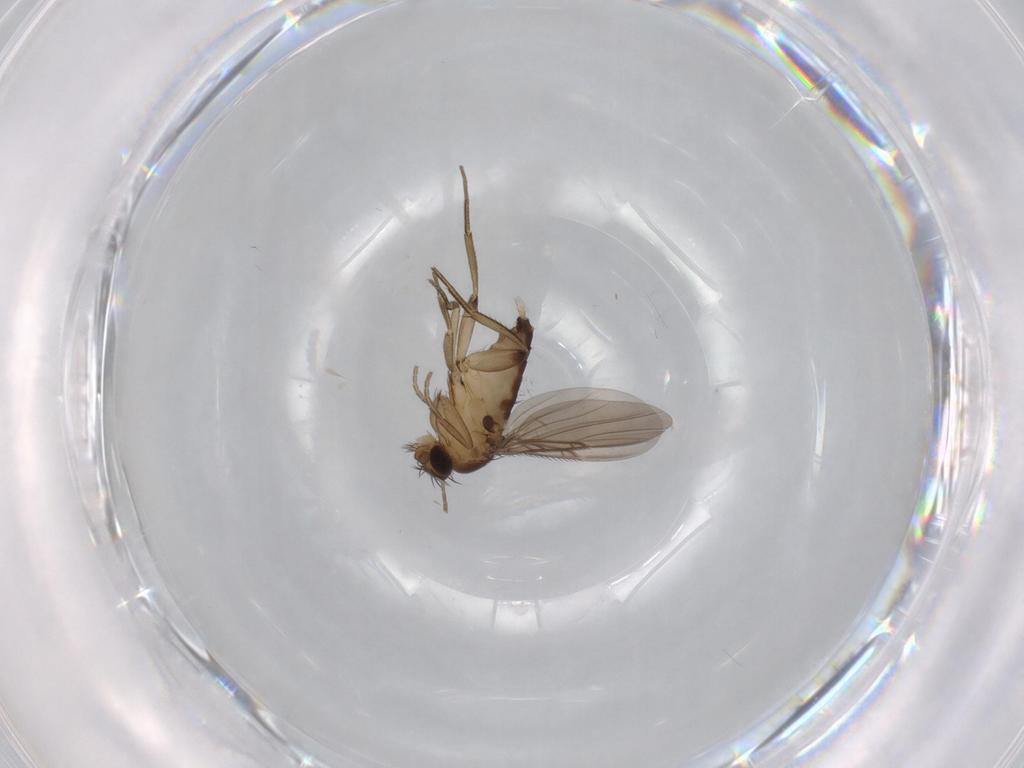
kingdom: Animalia
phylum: Arthropoda
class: Insecta
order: Diptera
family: Phoridae
